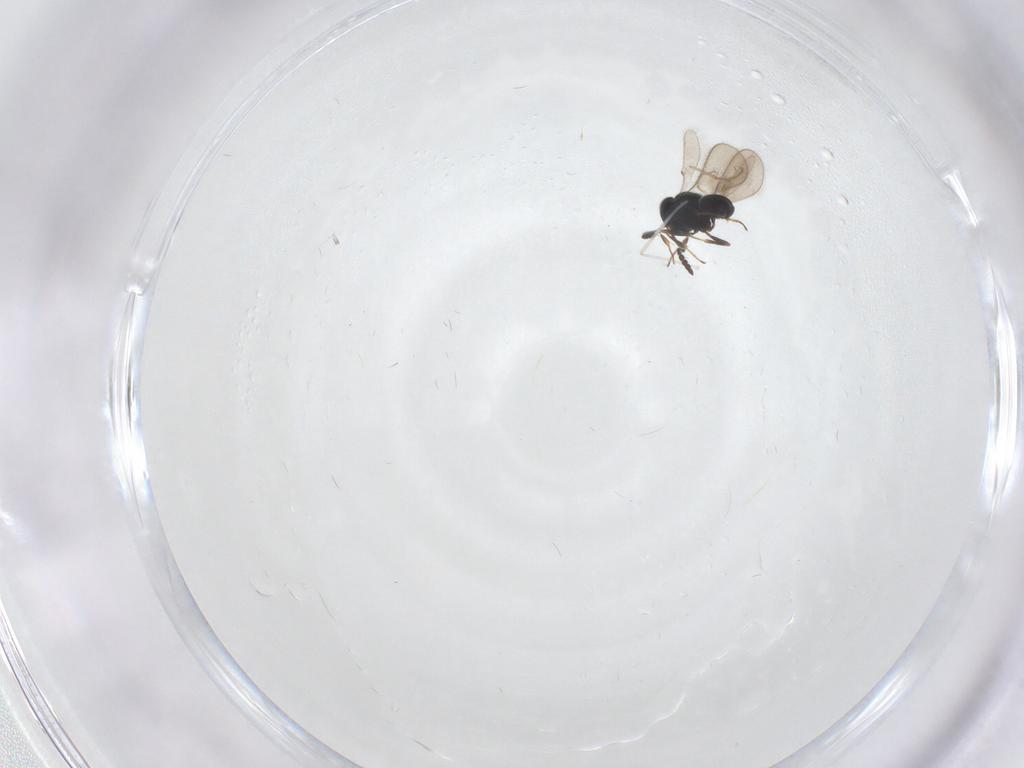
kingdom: Animalia
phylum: Arthropoda
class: Insecta
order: Hymenoptera
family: Scelionidae
